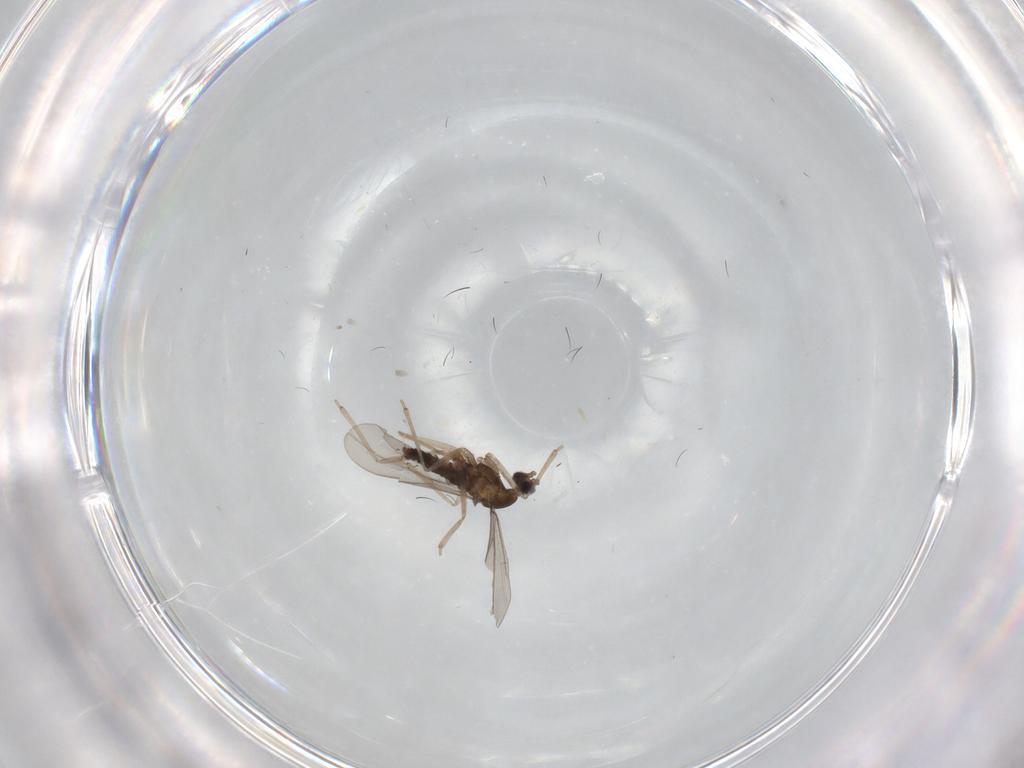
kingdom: Animalia
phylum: Arthropoda
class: Insecta
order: Diptera
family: Cecidomyiidae
